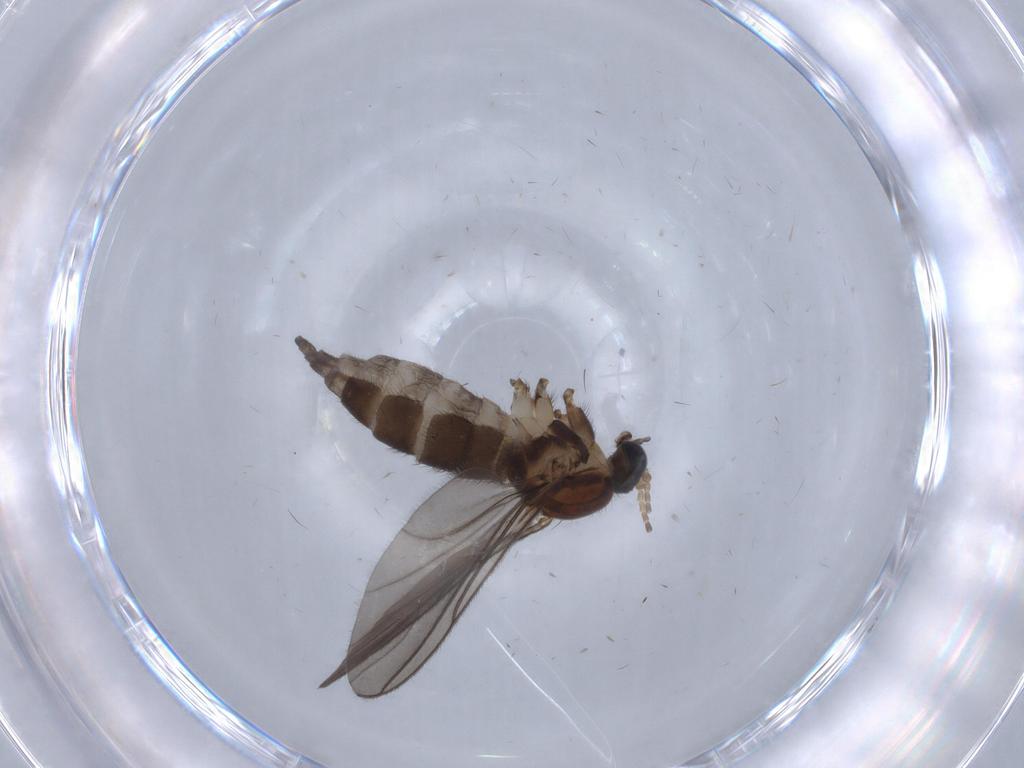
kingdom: Animalia
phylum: Arthropoda
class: Insecta
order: Diptera
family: Sciaridae
